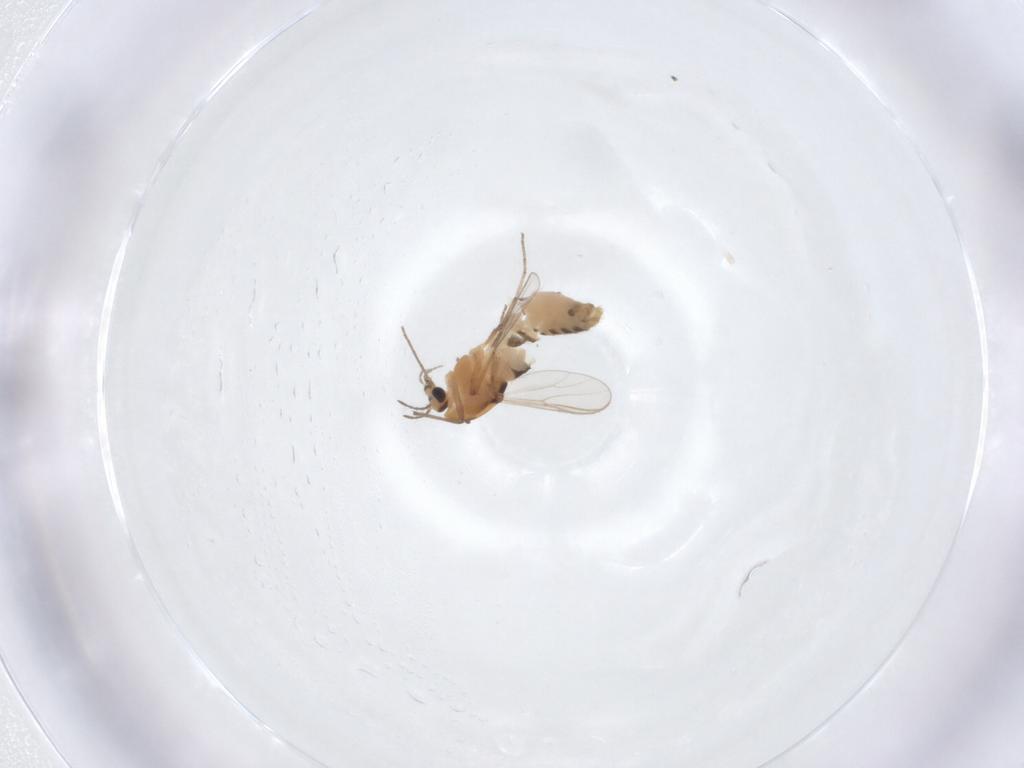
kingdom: Animalia
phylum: Arthropoda
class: Insecta
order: Diptera
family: Chironomidae
